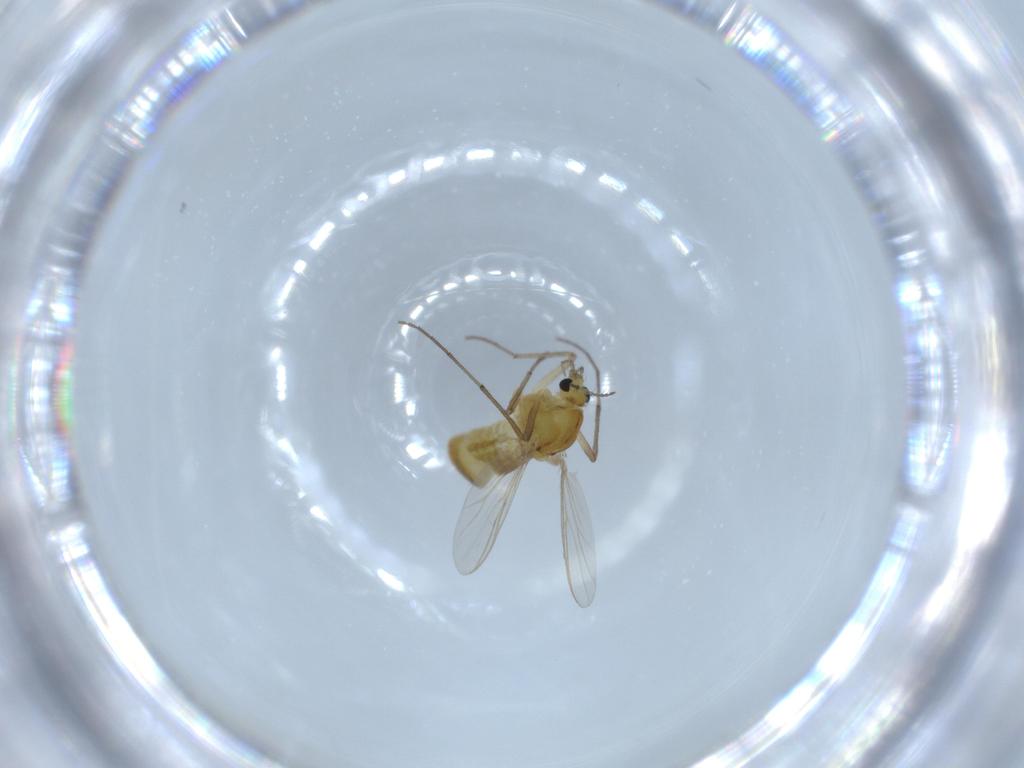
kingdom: Animalia
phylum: Arthropoda
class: Insecta
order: Diptera
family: Chironomidae
